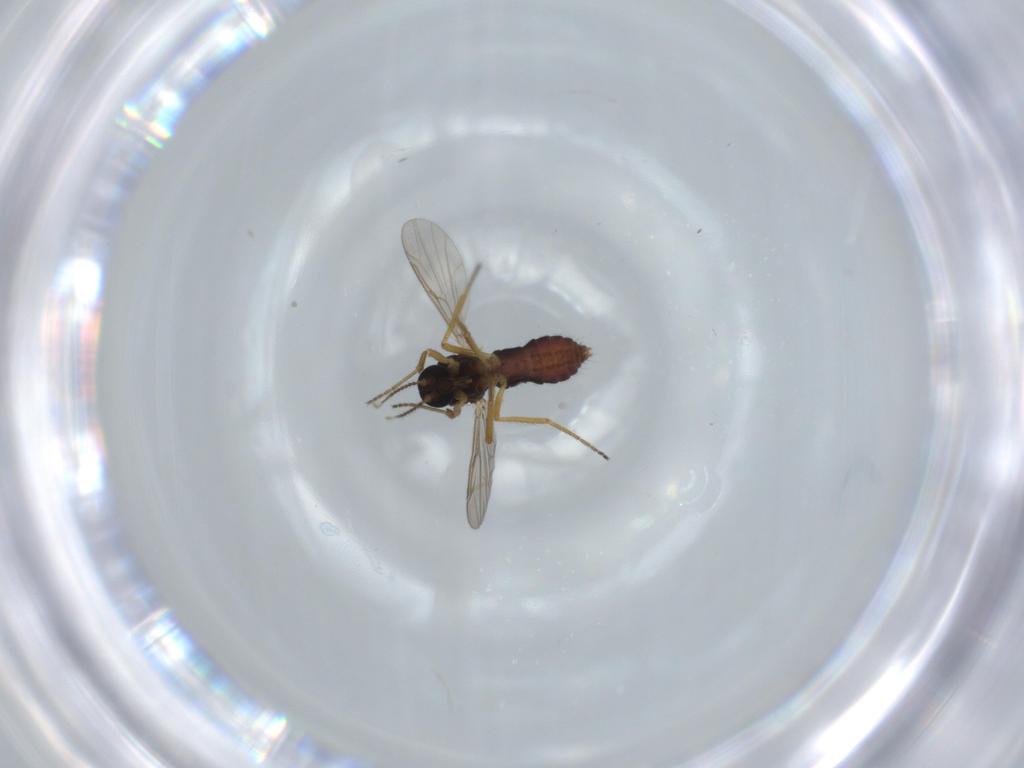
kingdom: Animalia
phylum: Arthropoda
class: Insecta
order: Diptera
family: Ceratopogonidae
